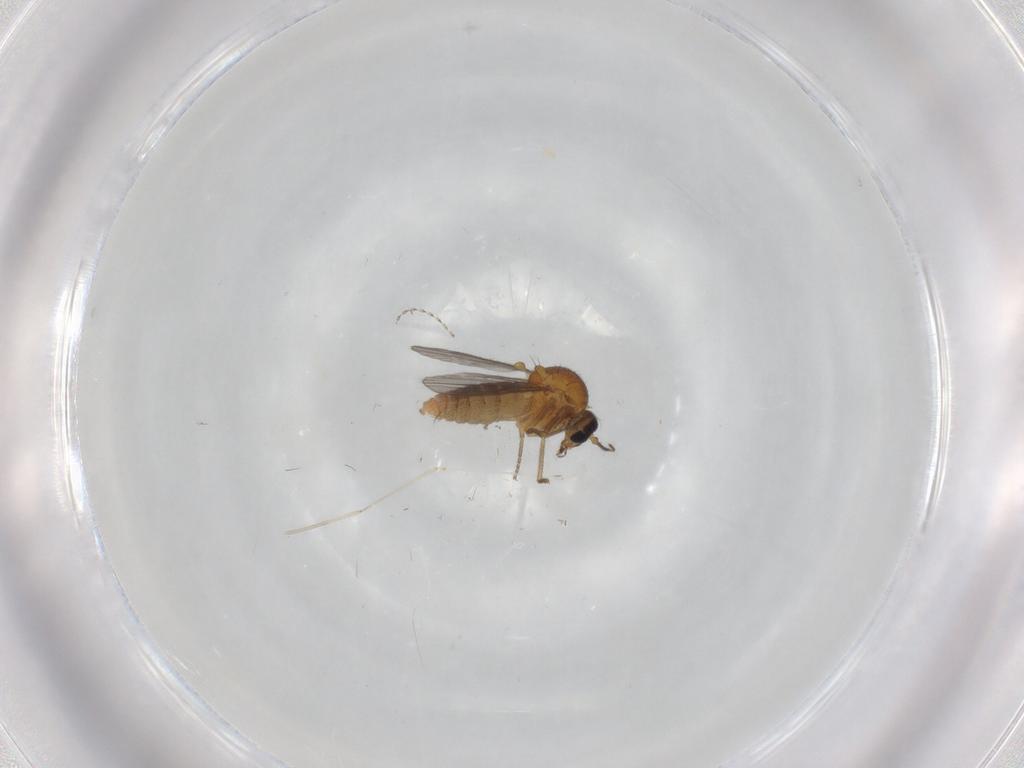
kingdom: Animalia
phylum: Arthropoda
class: Insecta
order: Diptera
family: Ceratopogonidae
